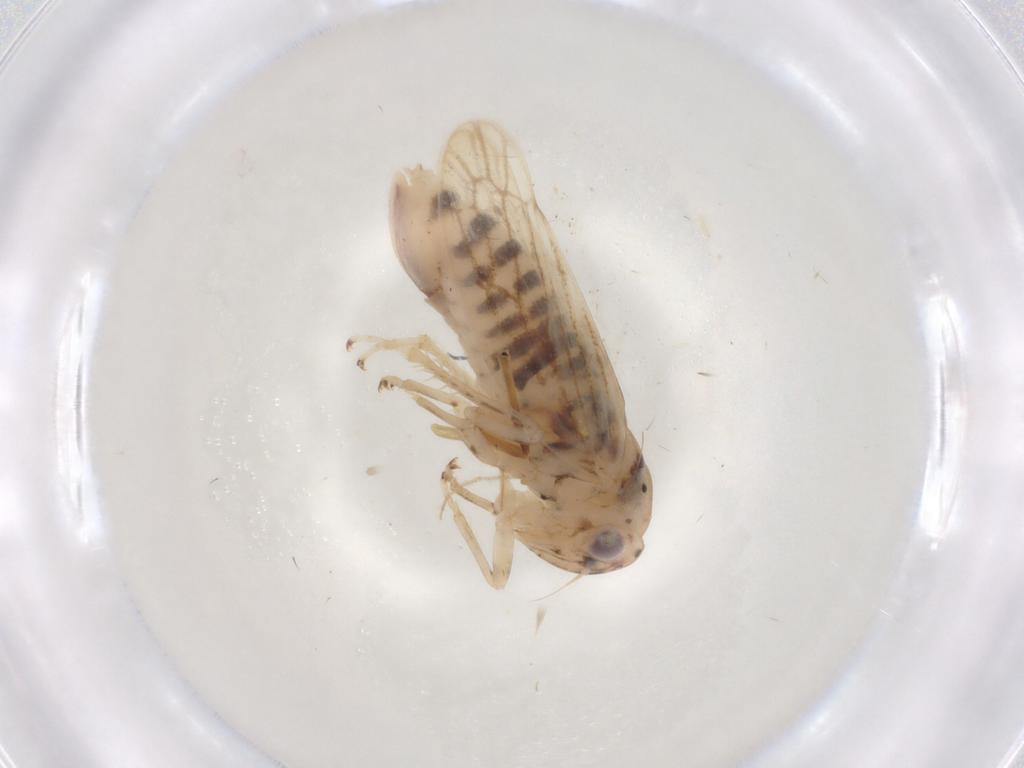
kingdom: Animalia
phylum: Arthropoda
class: Insecta
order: Hemiptera
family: Cicadellidae
